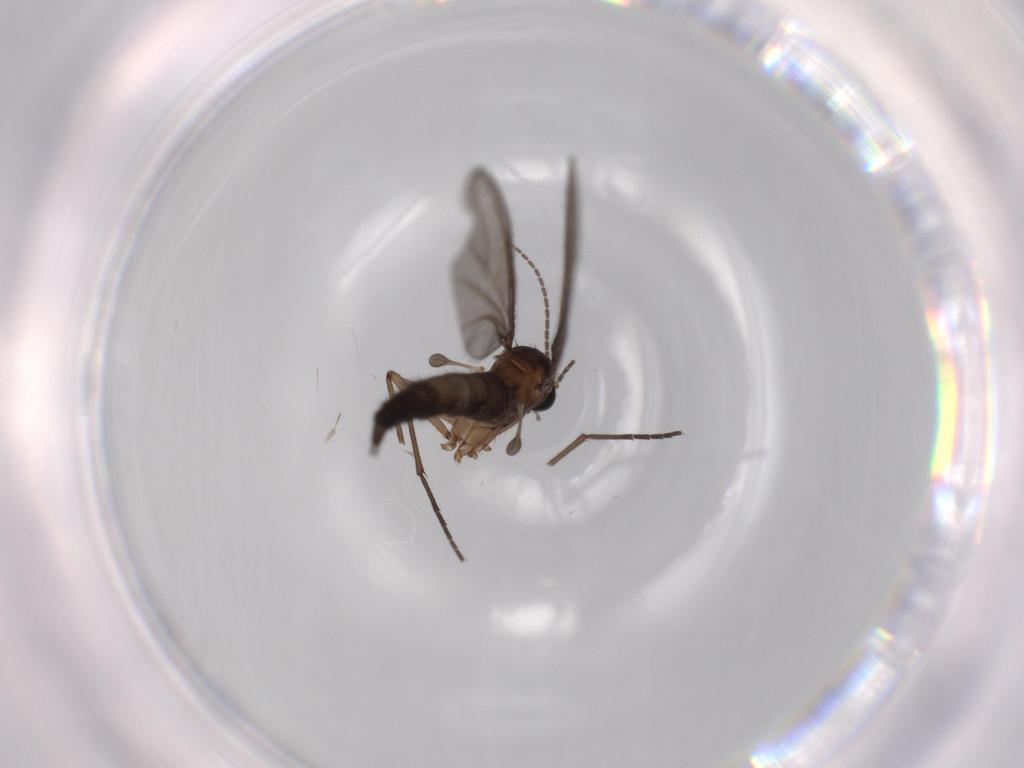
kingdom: Animalia
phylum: Arthropoda
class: Insecta
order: Diptera
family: Sciaridae
